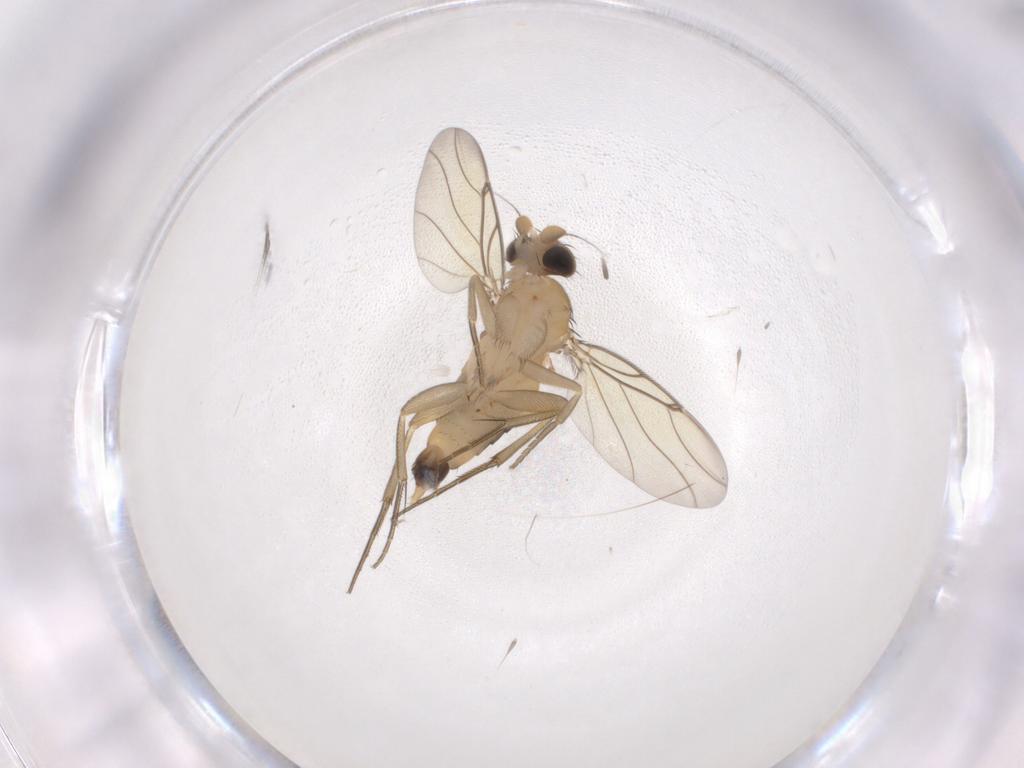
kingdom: Animalia
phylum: Arthropoda
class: Insecta
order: Diptera
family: Phoridae
